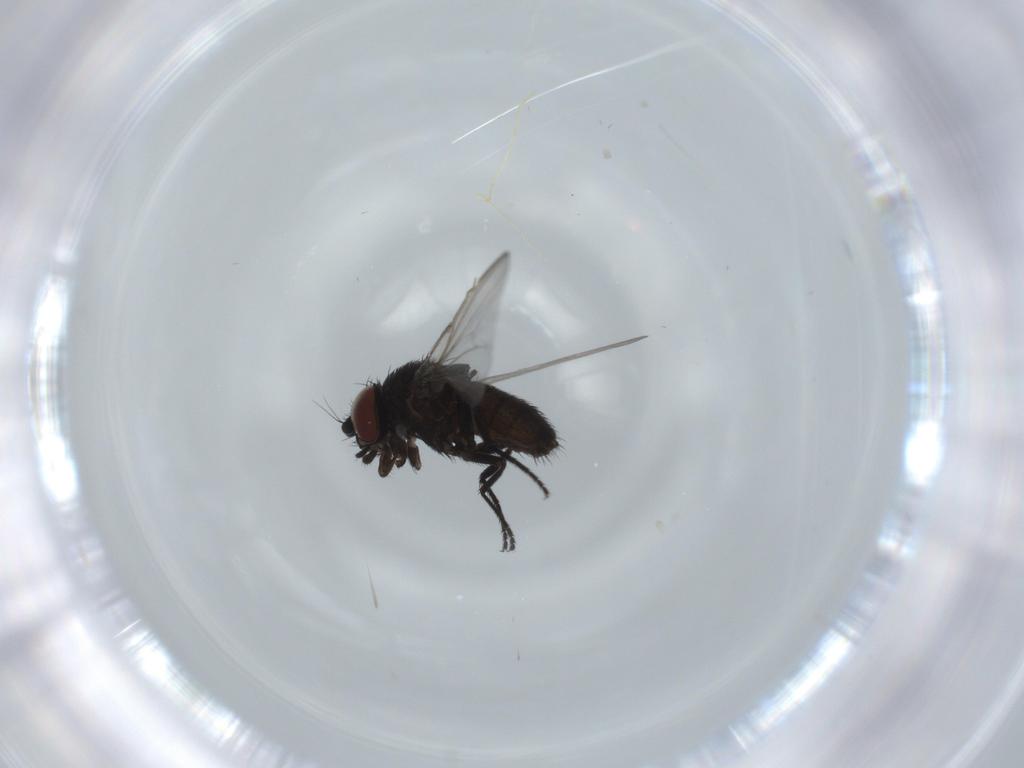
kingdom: Animalia
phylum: Arthropoda
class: Insecta
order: Diptera
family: Milichiidae
